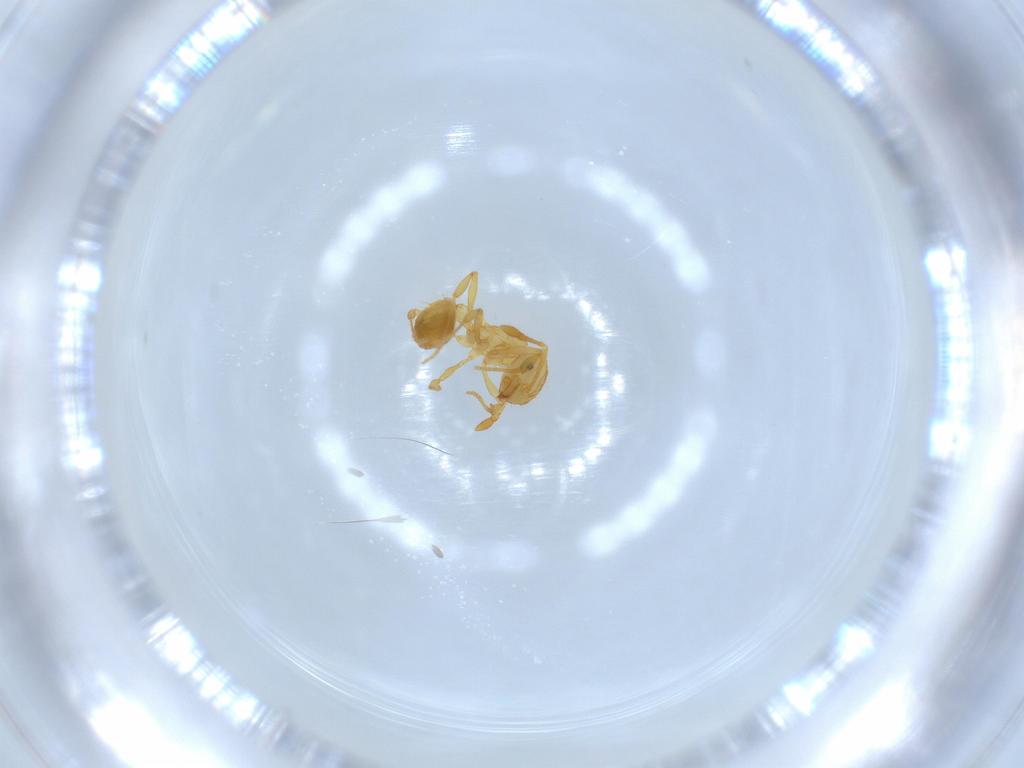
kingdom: Animalia
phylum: Arthropoda
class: Insecta
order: Hymenoptera
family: Formicidae
